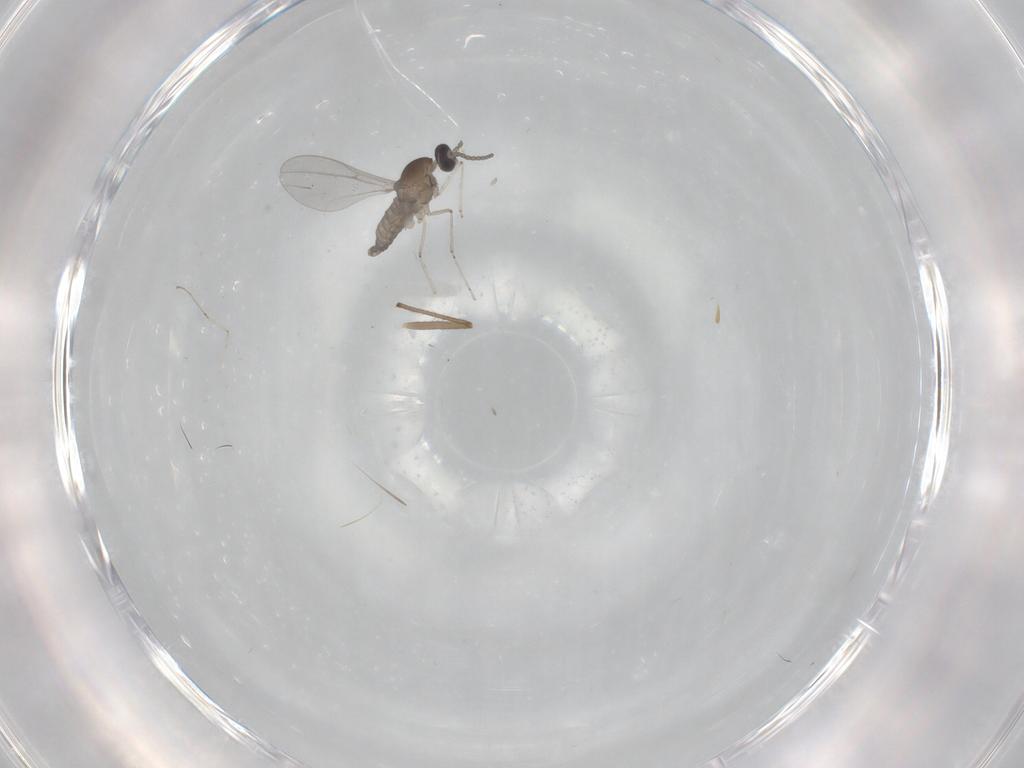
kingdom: Animalia
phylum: Arthropoda
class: Insecta
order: Diptera
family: Chironomidae
